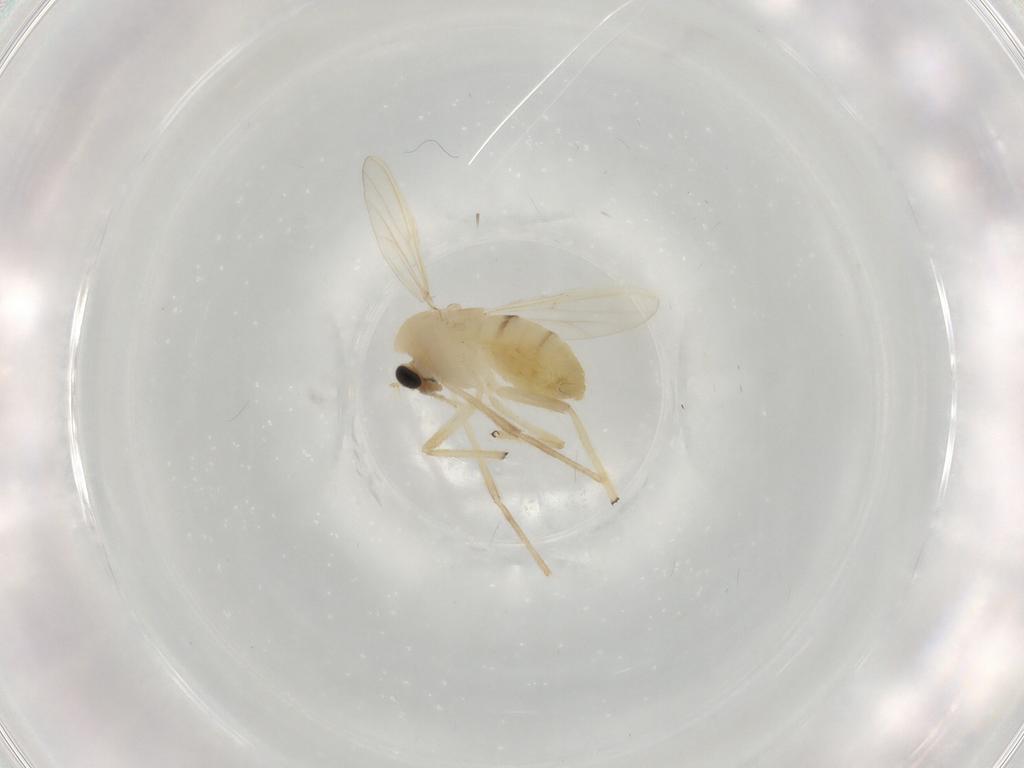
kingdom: Animalia
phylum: Arthropoda
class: Insecta
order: Diptera
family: Chironomidae
